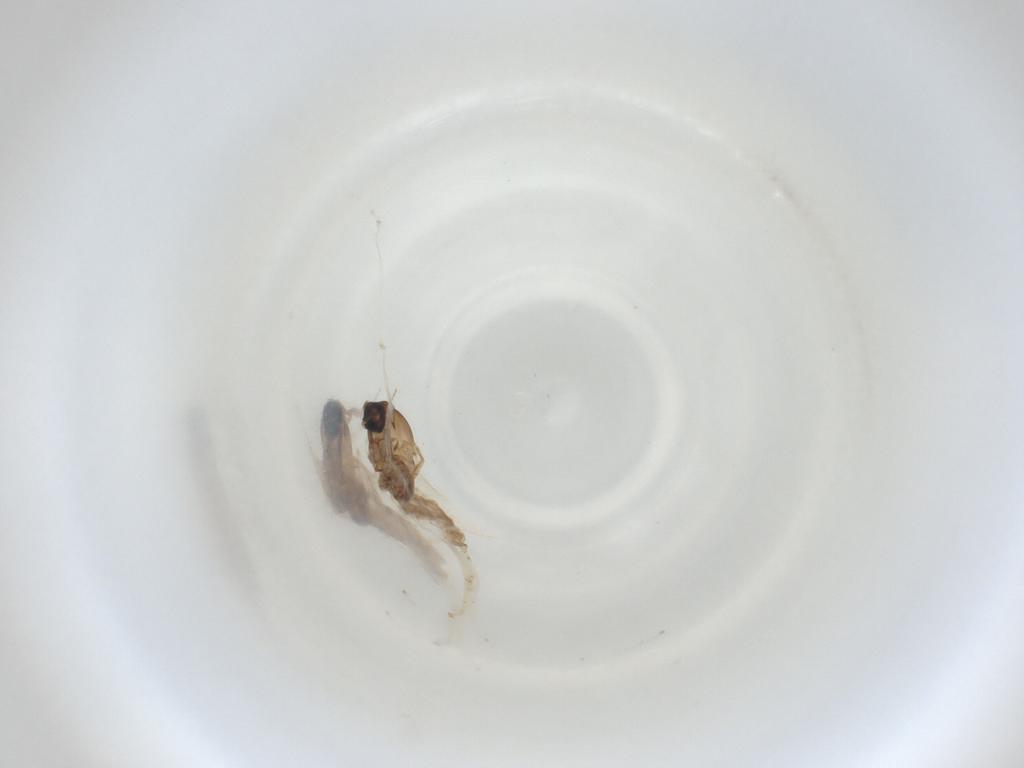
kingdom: Animalia
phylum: Arthropoda
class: Insecta
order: Diptera
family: Cecidomyiidae
